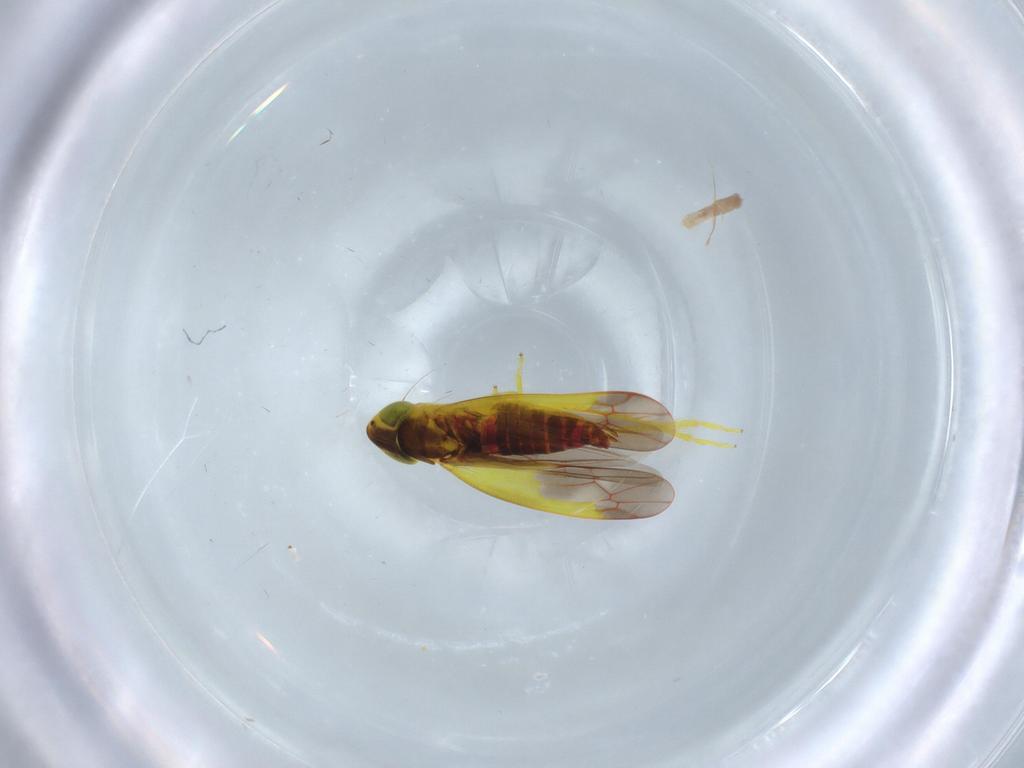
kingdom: Animalia
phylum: Arthropoda
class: Insecta
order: Hemiptera
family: Cicadellidae
